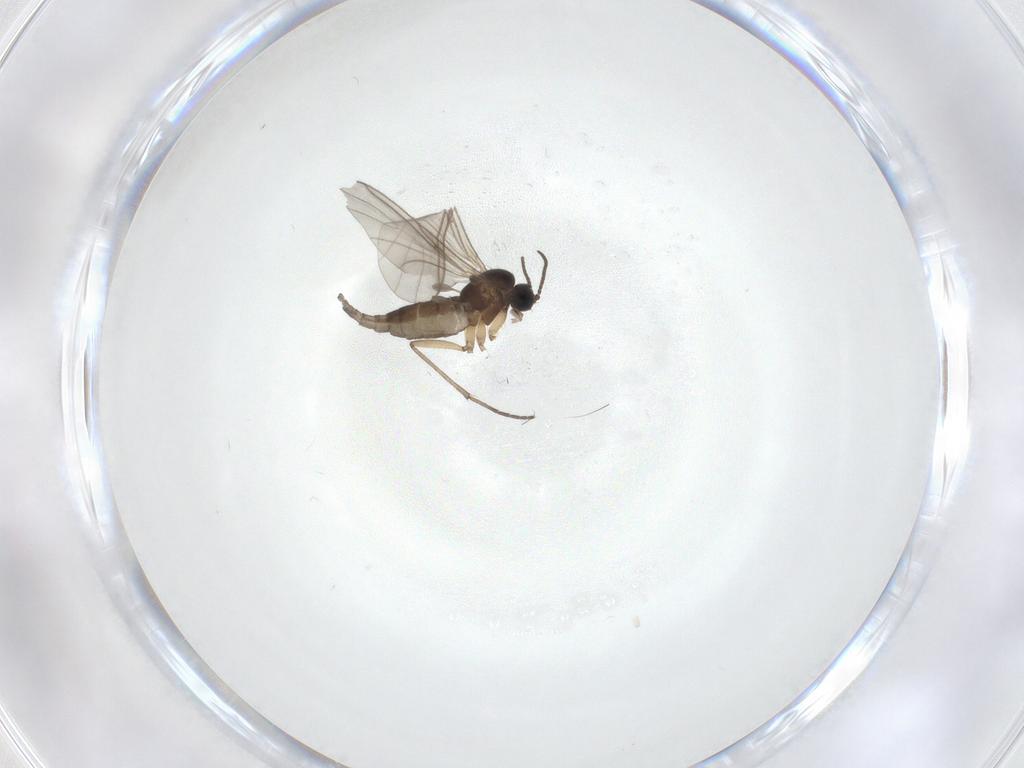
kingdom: Animalia
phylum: Arthropoda
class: Insecta
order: Diptera
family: Sciaridae
